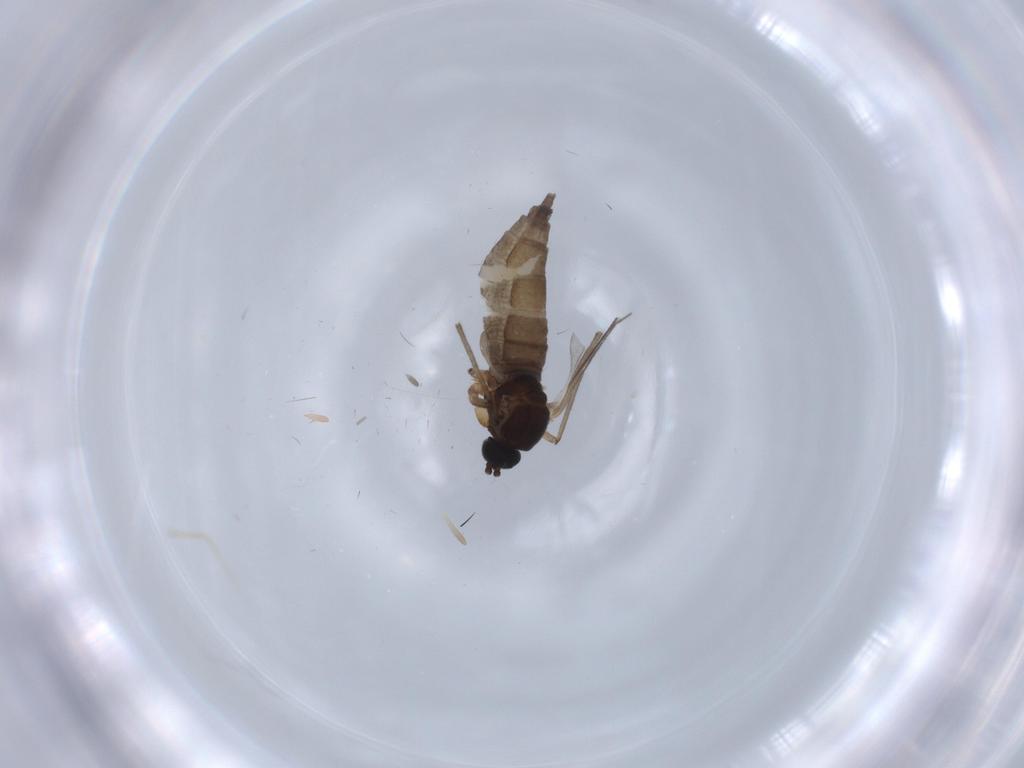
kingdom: Animalia
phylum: Arthropoda
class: Insecta
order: Diptera
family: Sciaridae
